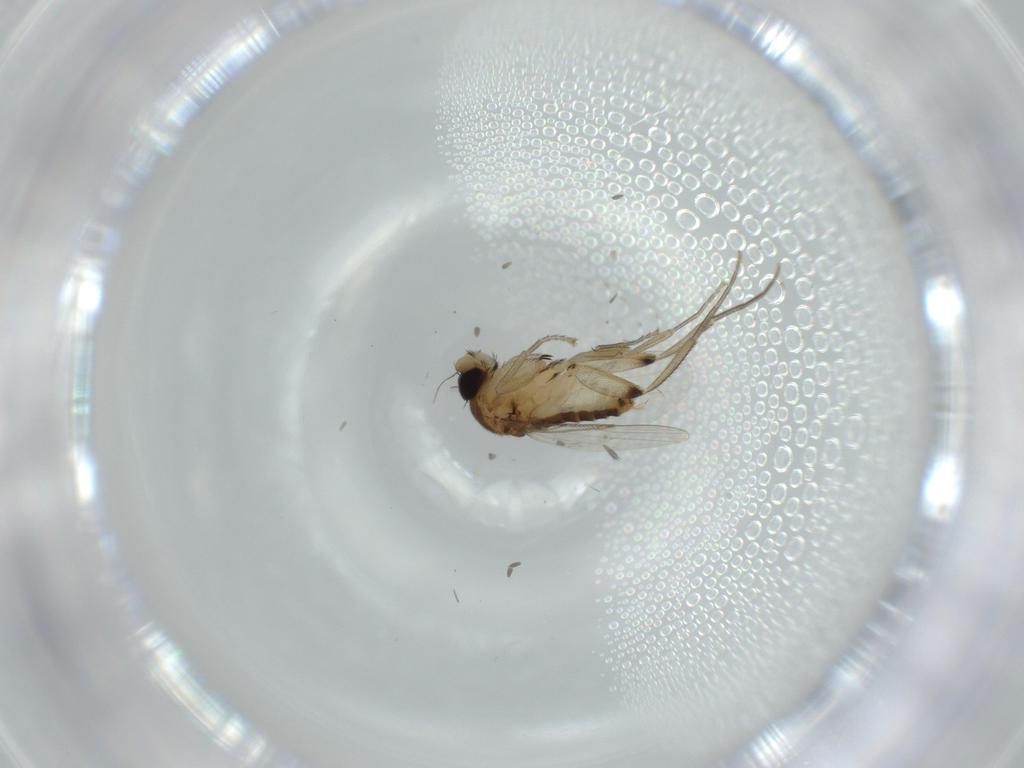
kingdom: Animalia
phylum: Arthropoda
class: Insecta
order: Diptera
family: Phoridae
